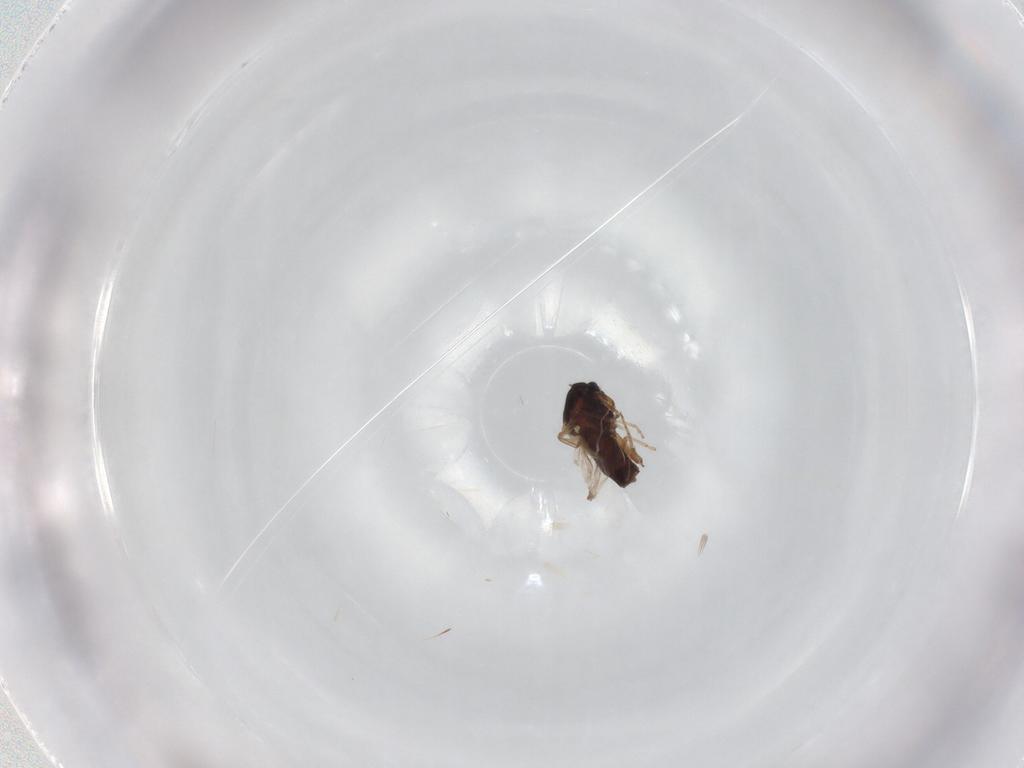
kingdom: Animalia
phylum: Arthropoda
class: Insecta
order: Diptera
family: Ceratopogonidae
